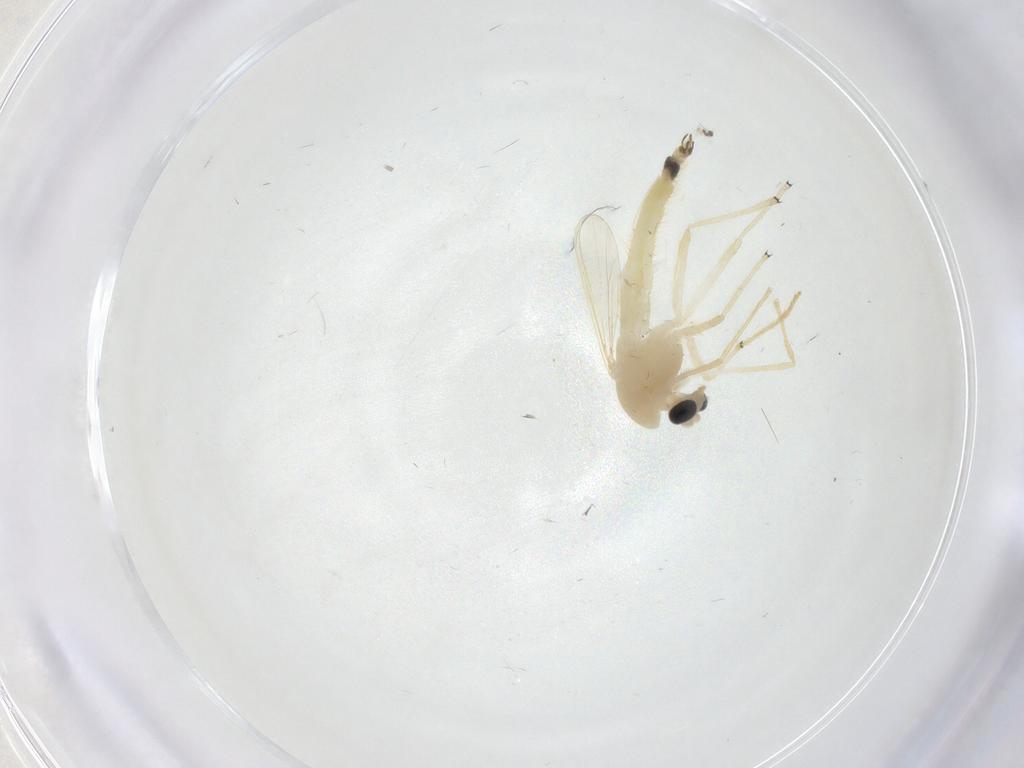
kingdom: Animalia
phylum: Arthropoda
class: Insecta
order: Diptera
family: Chironomidae
